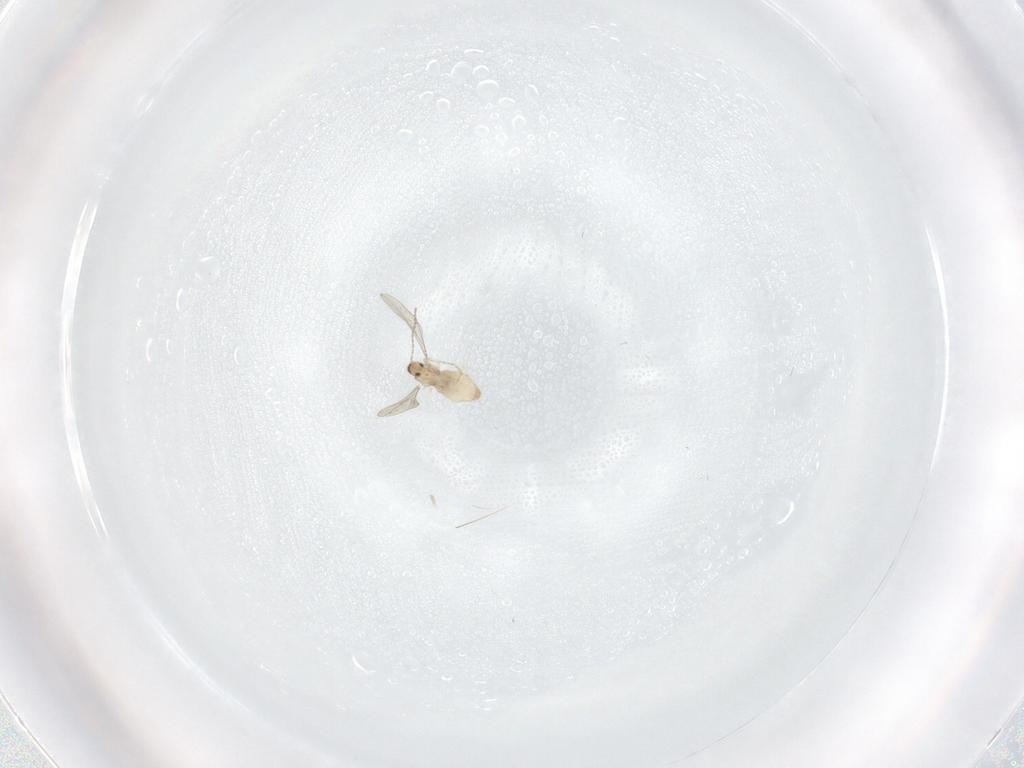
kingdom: Animalia
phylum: Arthropoda
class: Insecta
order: Diptera
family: Cecidomyiidae
